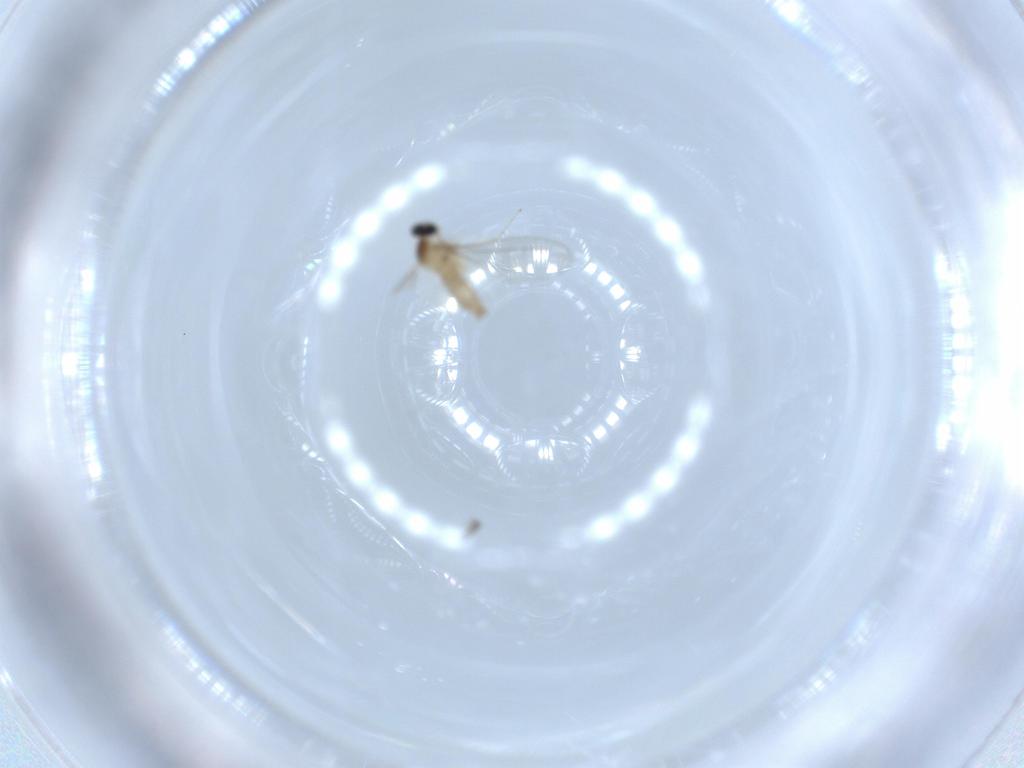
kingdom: Animalia
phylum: Arthropoda
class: Insecta
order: Diptera
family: Cecidomyiidae
